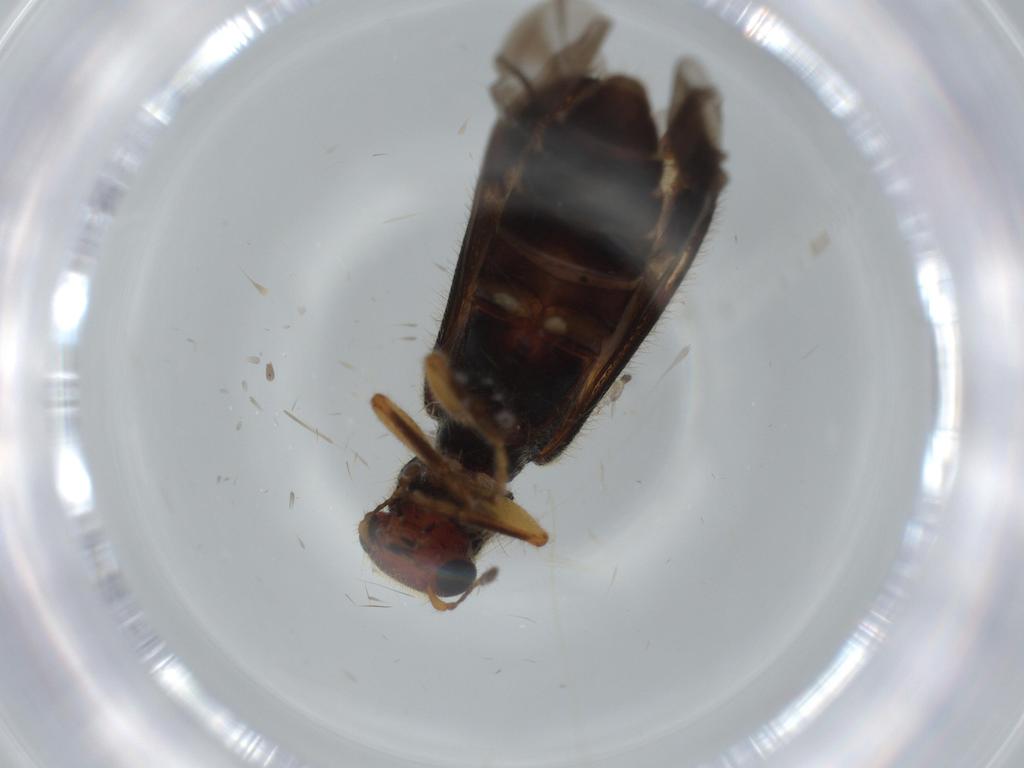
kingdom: Animalia
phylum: Arthropoda
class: Insecta
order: Coleoptera
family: Cleridae
